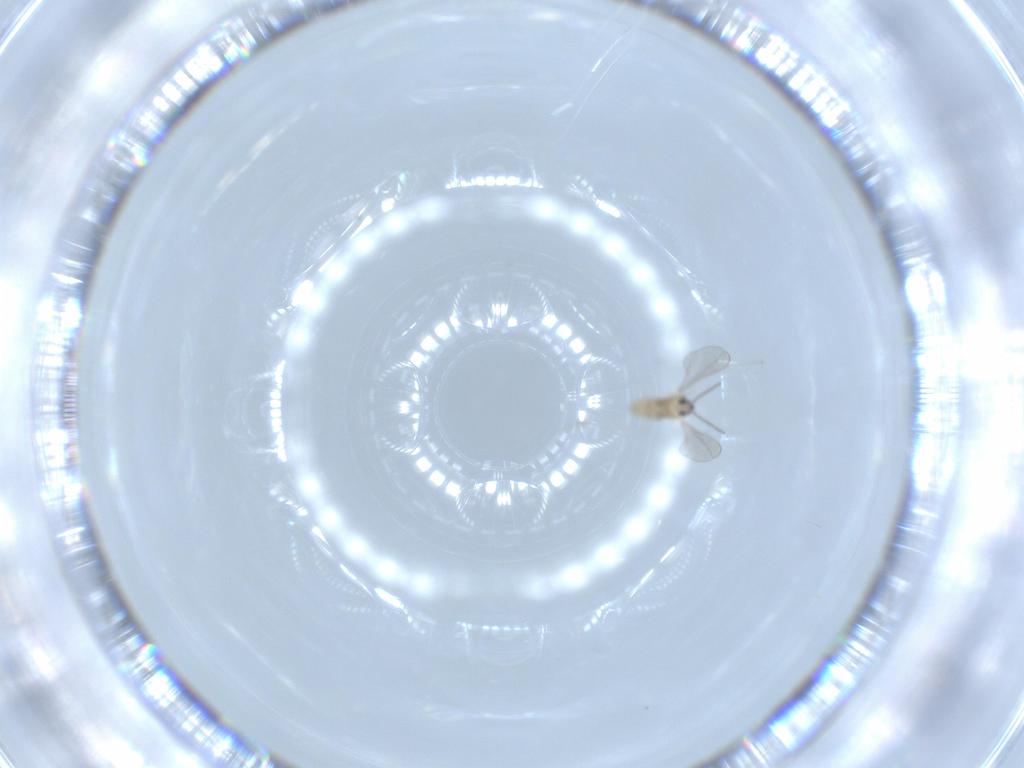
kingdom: Animalia
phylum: Arthropoda
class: Insecta
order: Diptera
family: Cecidomyiidae
